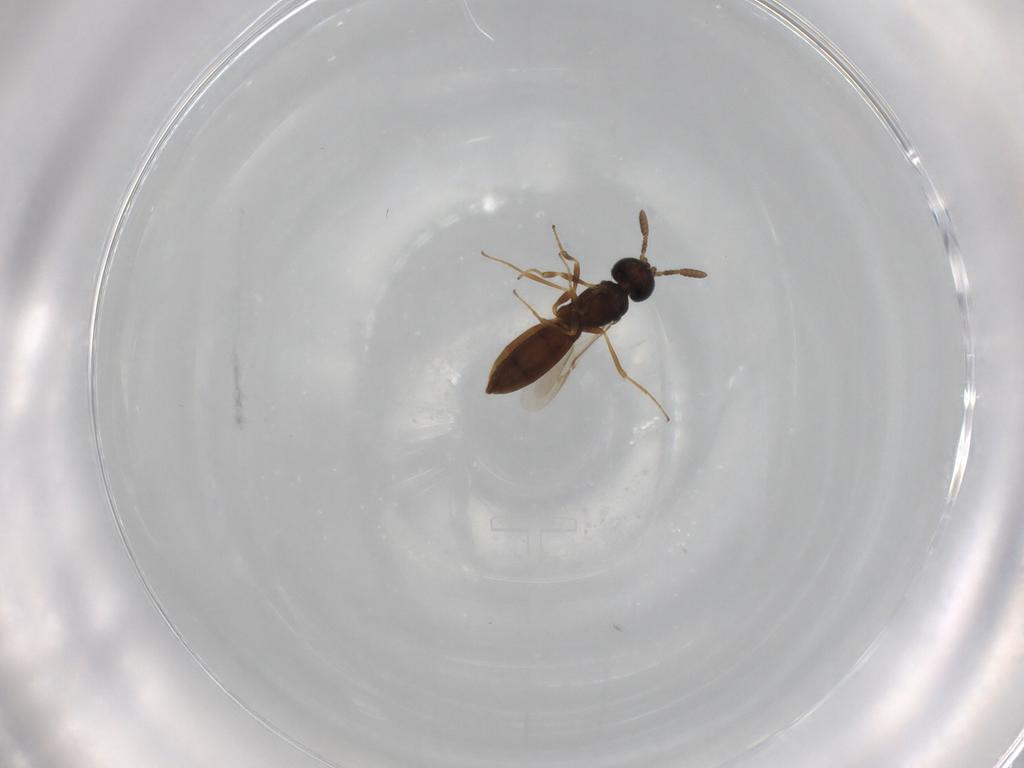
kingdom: Animalia
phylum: Arthropoda
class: Insecta
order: Hymenoptera
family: Scelionidae
